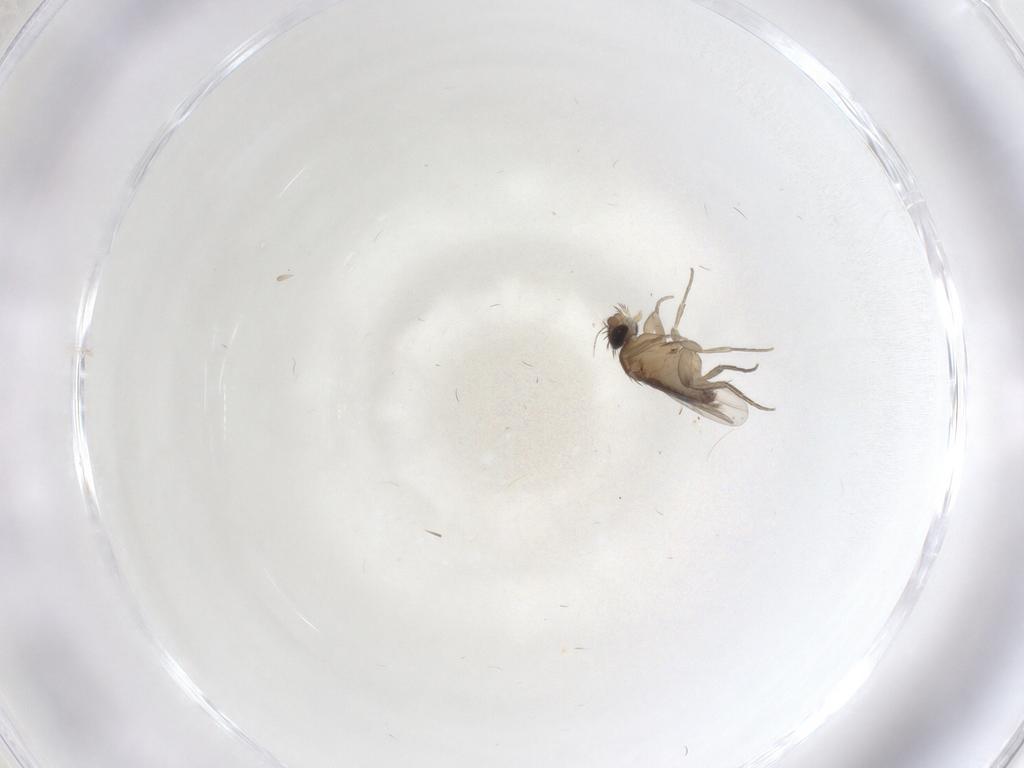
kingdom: Animalia
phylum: Arthropoda
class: Insecta
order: Diptera
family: Phoridae
